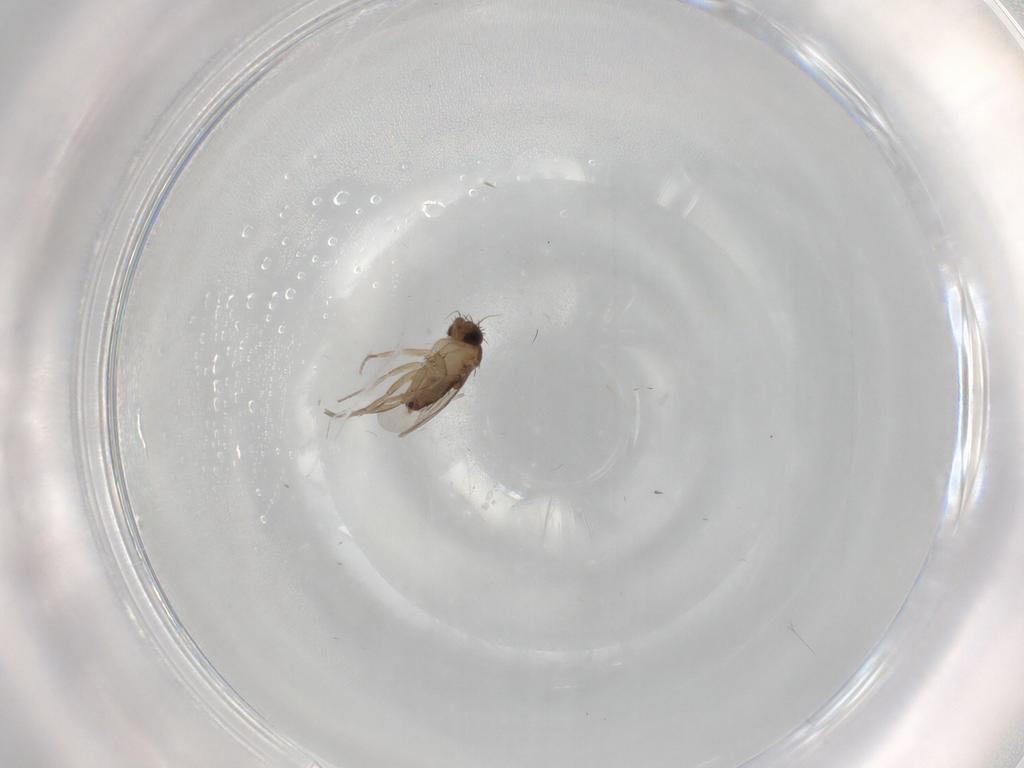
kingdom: Animalia
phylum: Arthropoda
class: Insecta
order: Diptera
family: Phoridae
